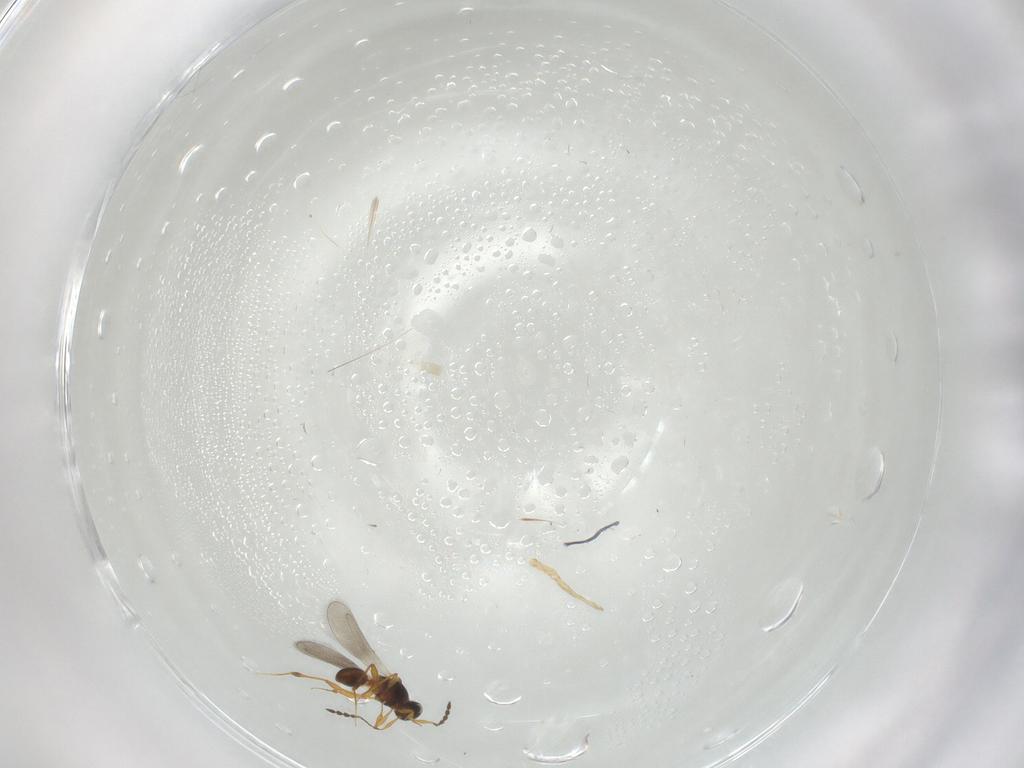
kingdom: Animalia
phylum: Arthropoda
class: Insecta
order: Hymenoptera
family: Platygastridae
